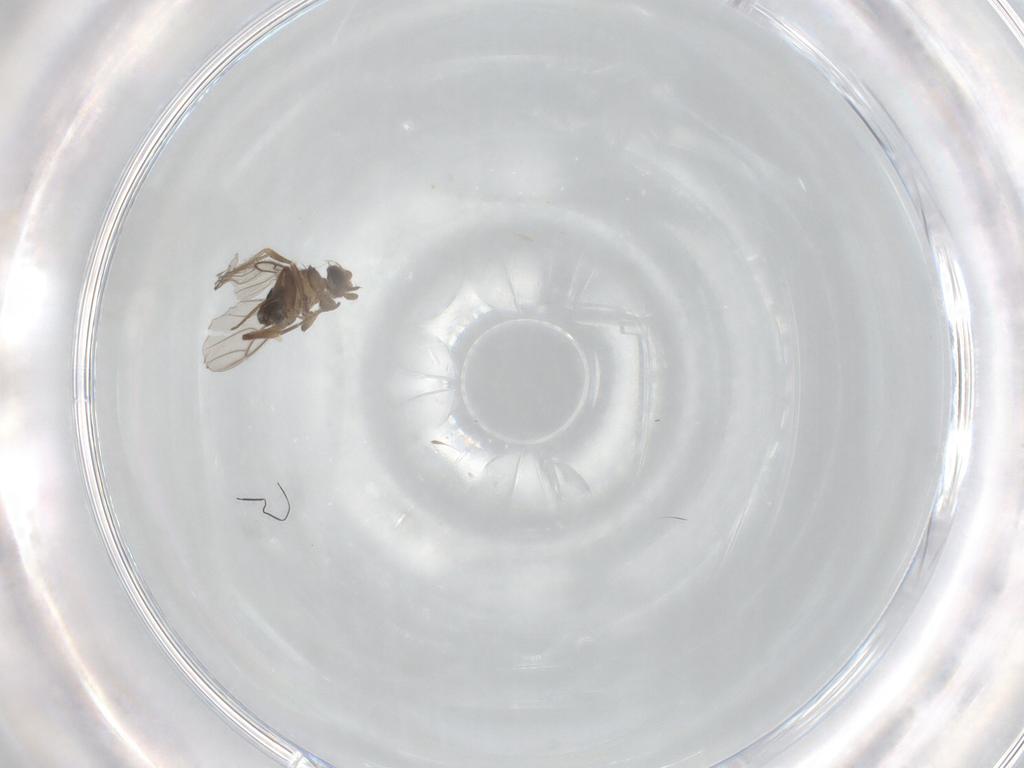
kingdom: Animalia
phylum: Arthropoda
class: Insecta
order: Diptera
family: Phoridae
